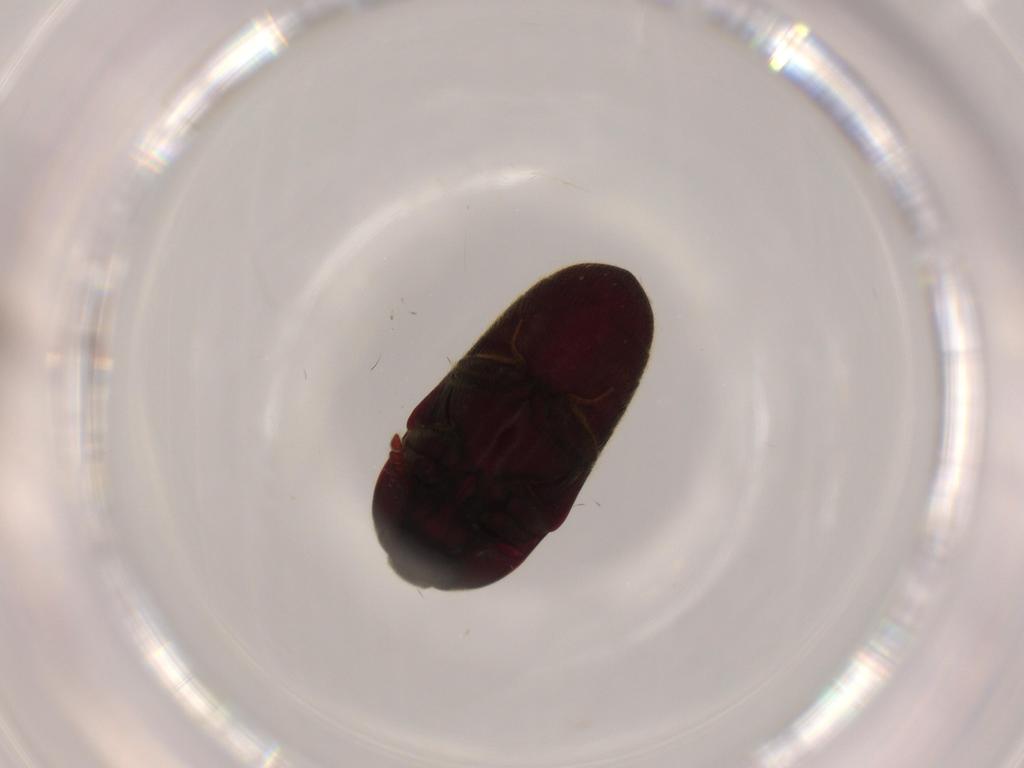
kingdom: Animalia
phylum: Arthropoda
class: Insecta
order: Coleoptera
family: Throscidae
